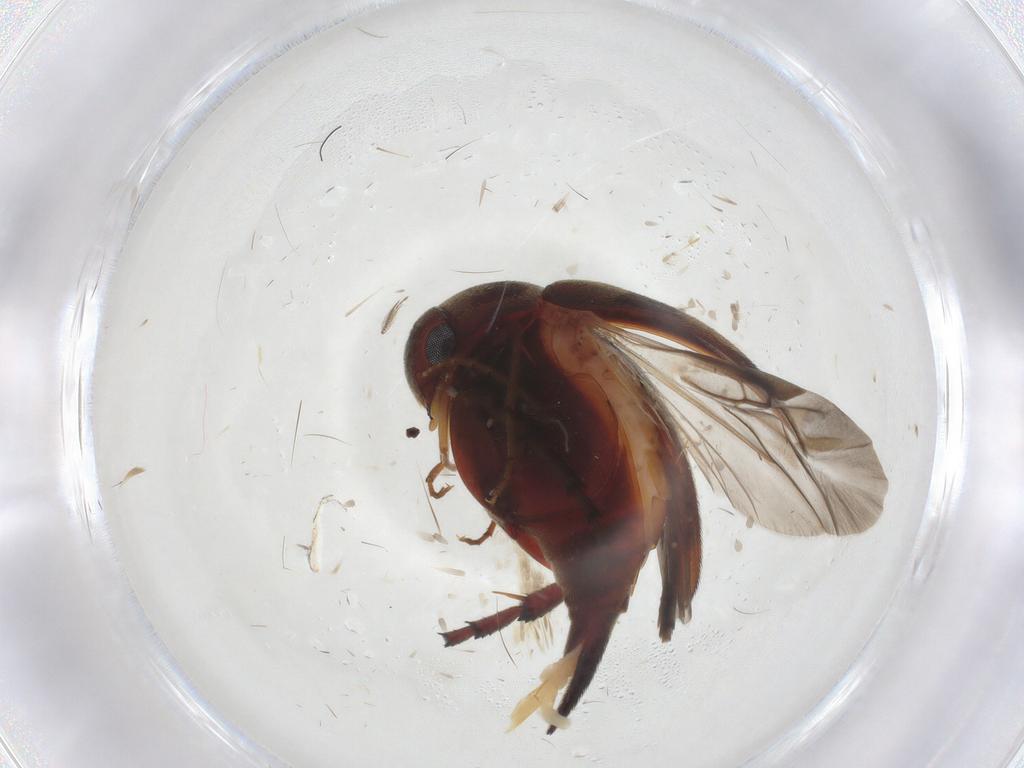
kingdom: Animalia
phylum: Arthropoda
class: Insecta
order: Coleoptera
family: Mordellidae
